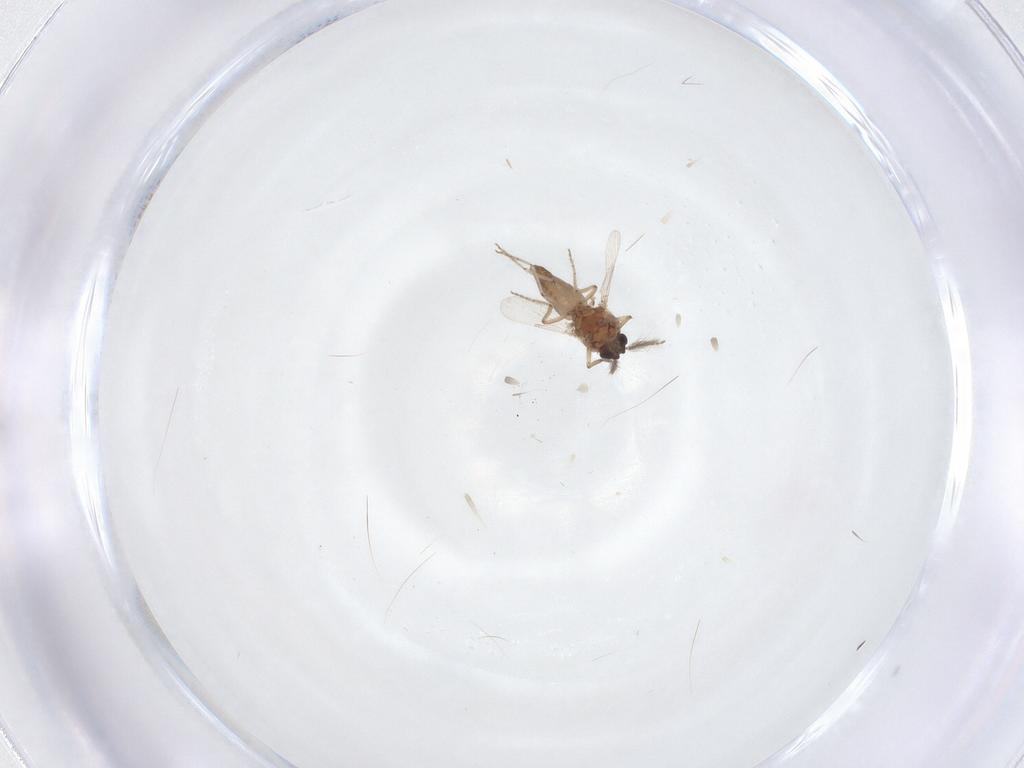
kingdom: Animalia
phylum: Arthropoda
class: Insecta
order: Diptera
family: Ceratopogonidae
